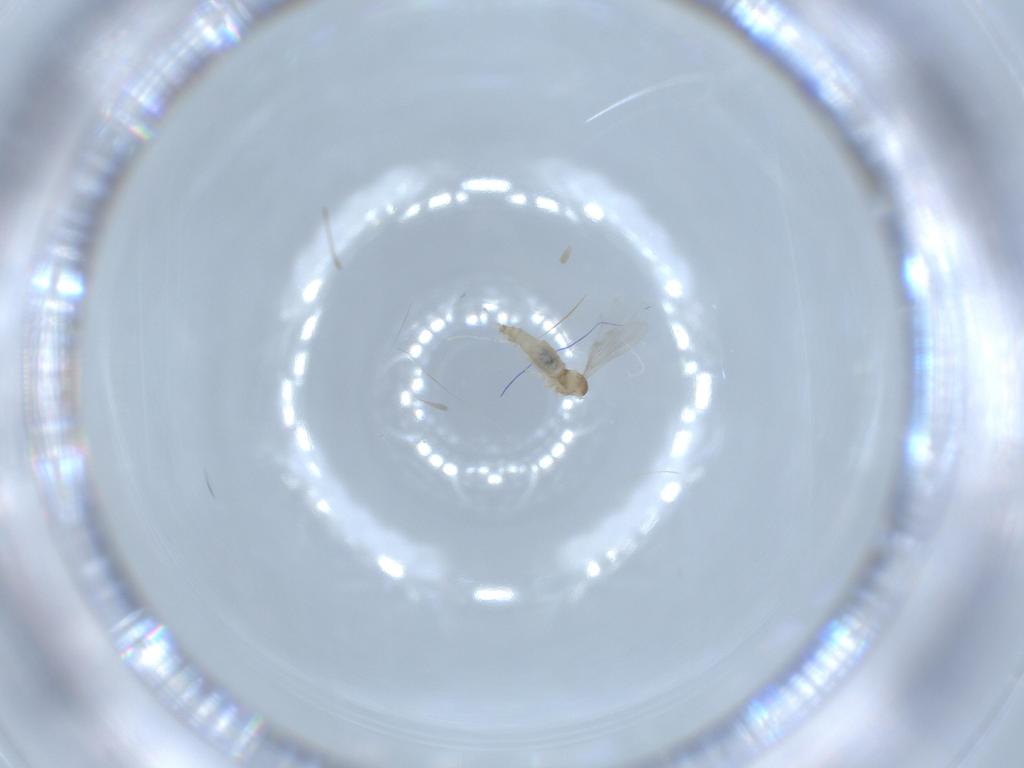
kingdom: Animalia
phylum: Arthropoda
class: Insecta
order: Diptera
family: Cecidomyiidae
